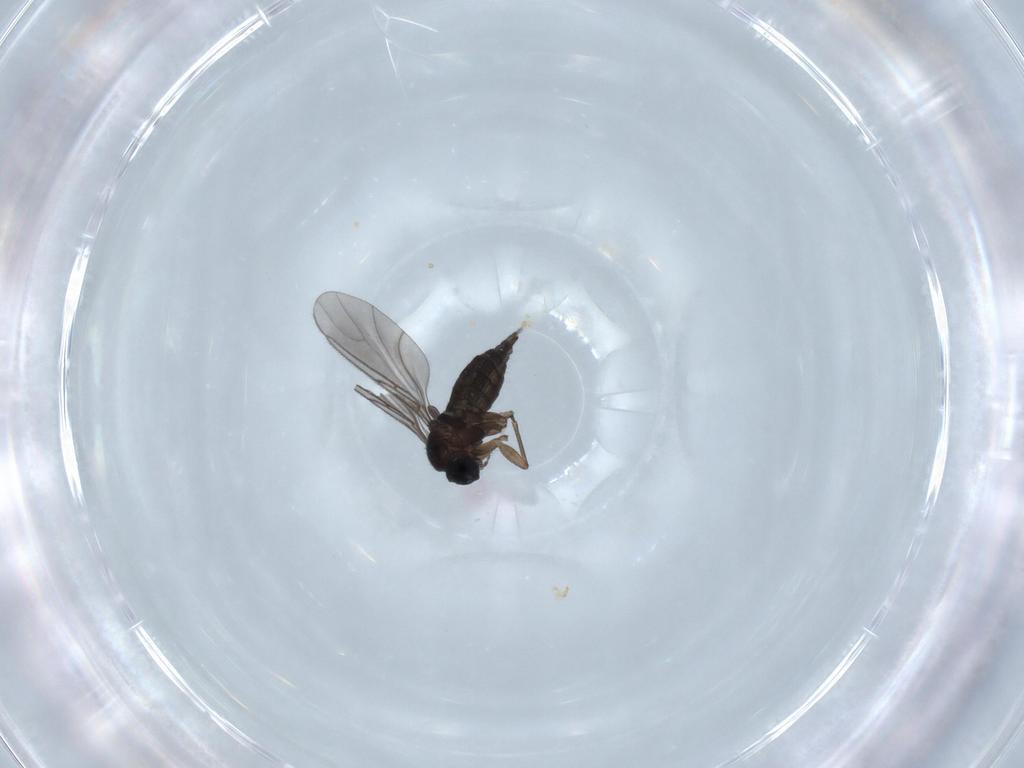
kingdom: Animalia
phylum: Arthropoda
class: Insecta
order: Diptera
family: Sciaridae
